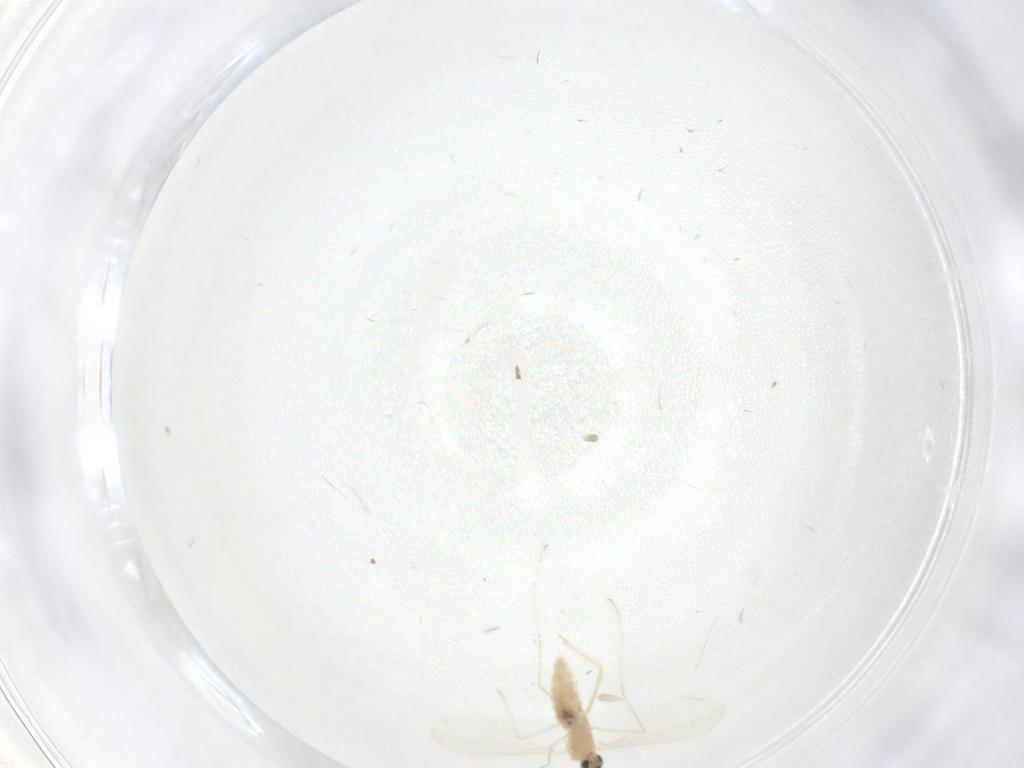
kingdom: Animalia
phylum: Arthropoda
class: Insecta
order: Diptera
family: Cecidomyiidae
